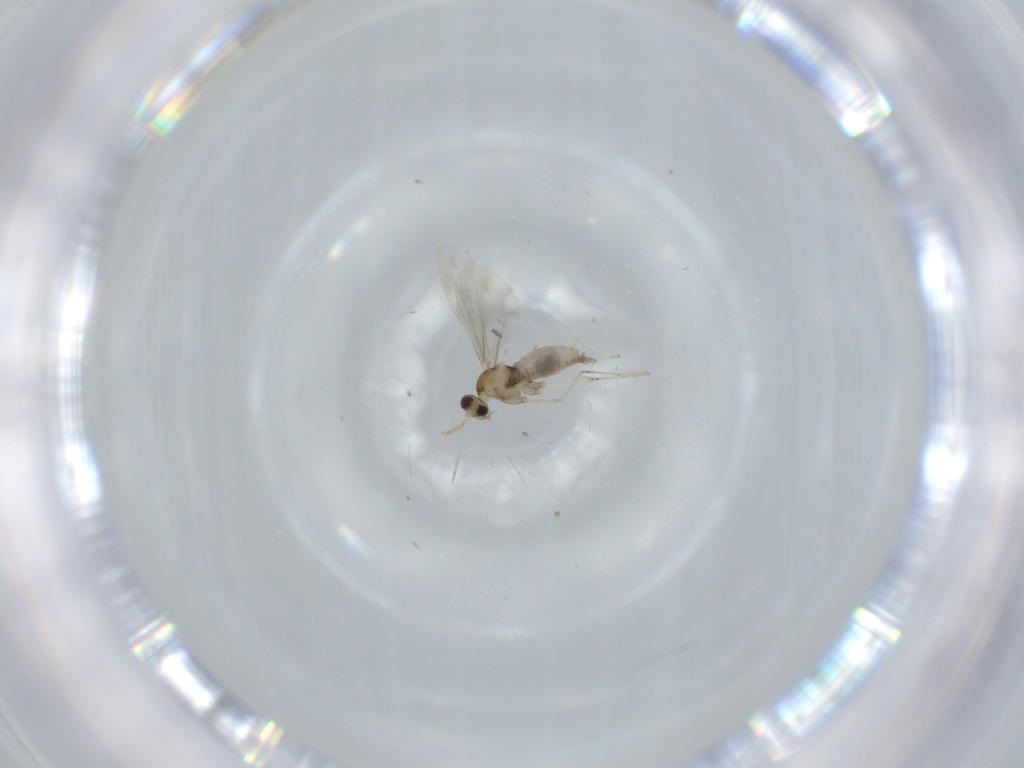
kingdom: Animalia
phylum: Arthropoda
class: Insecta
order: Diptera
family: Cecidomyiidae
